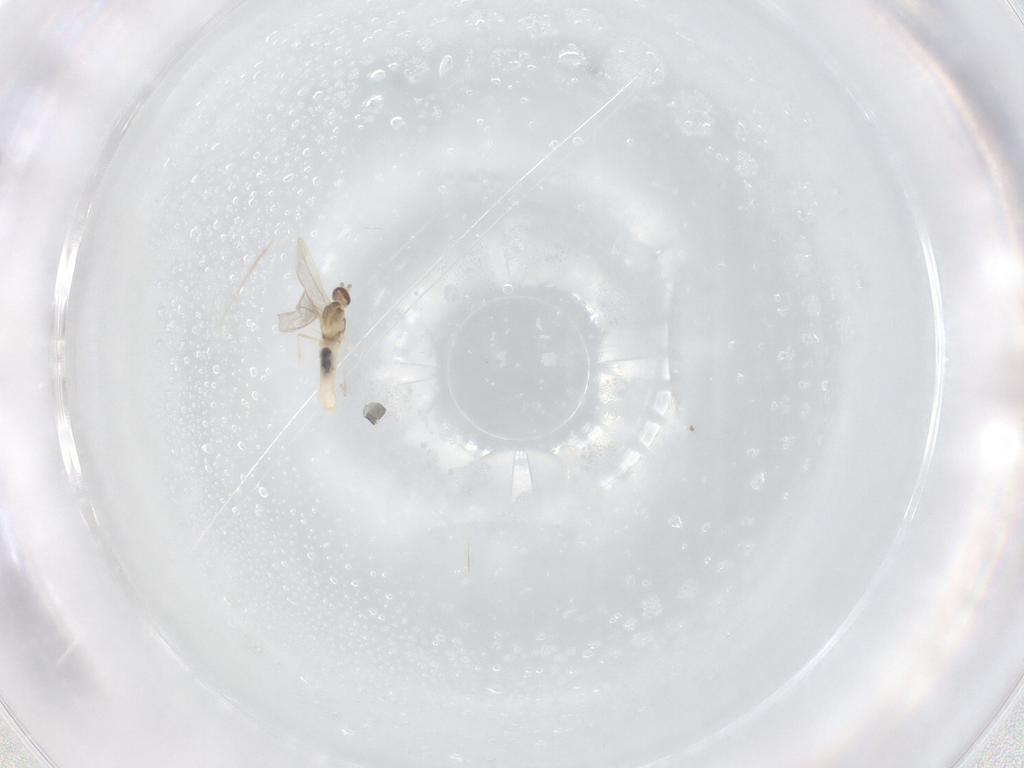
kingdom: Animalia
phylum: Arthropoda
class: Insecta
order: Diptera
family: Cecidomyiidae
